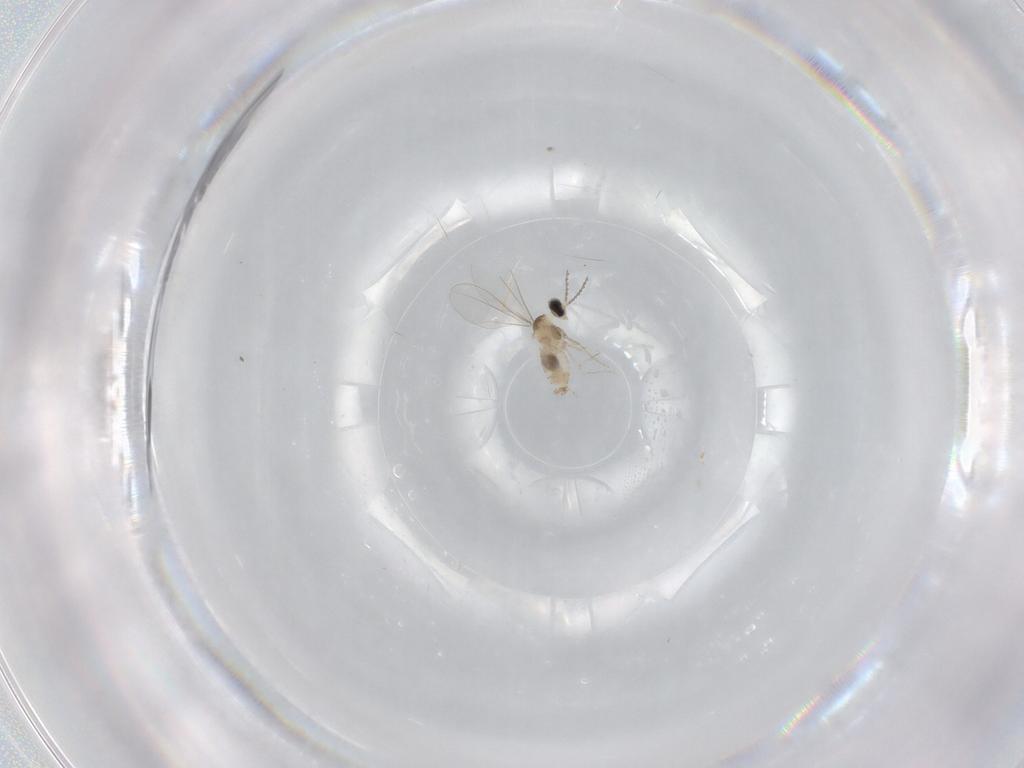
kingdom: Animalia
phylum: Arthropoda
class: Insecta
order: Diptera
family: Cecidomyiidae
